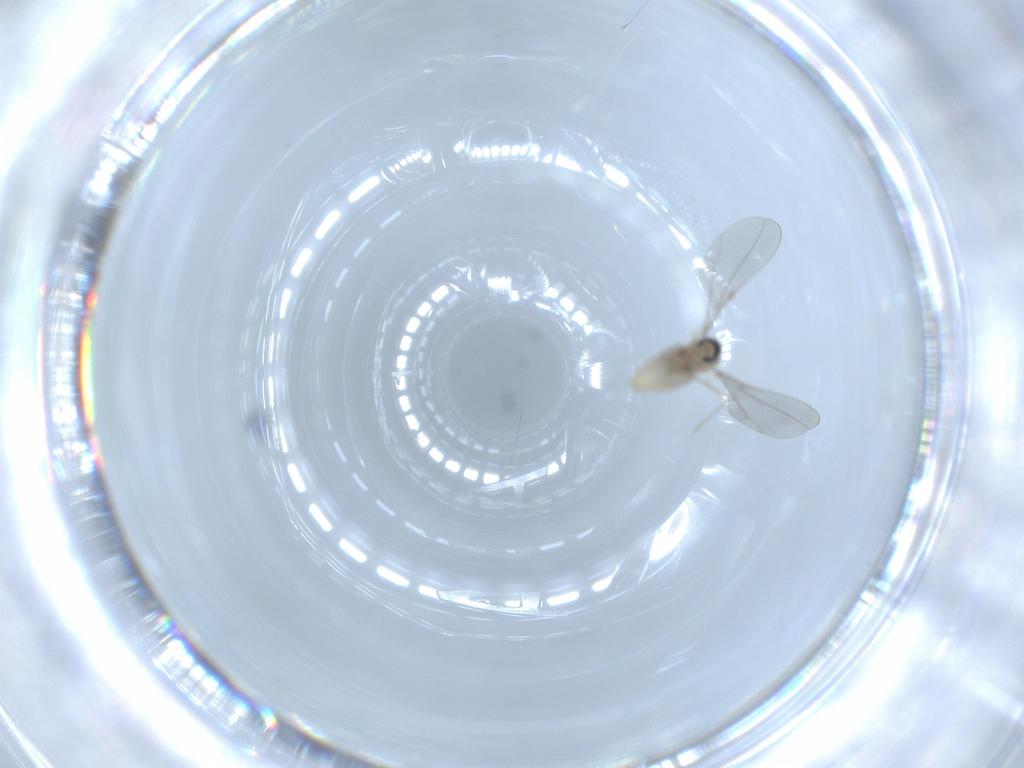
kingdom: Animalia
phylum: Arthropoda
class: Insecta
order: Diptera
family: Cecidomyiidae
